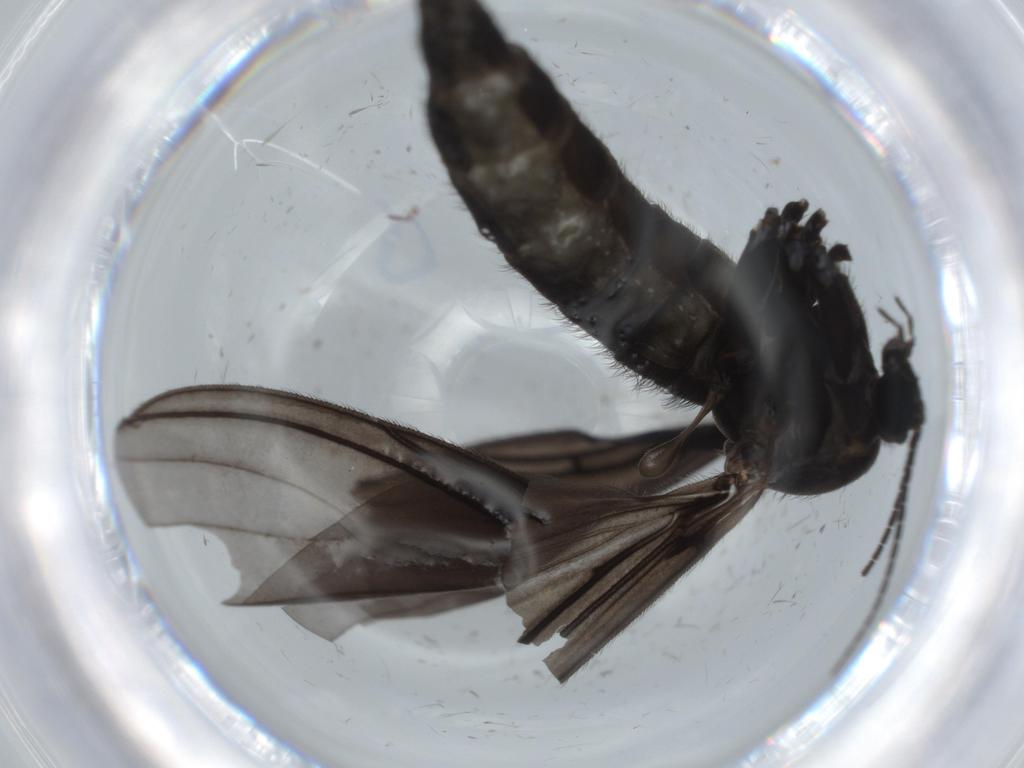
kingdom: Animalia
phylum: Arthropoda
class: Insecta
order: Diptera
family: Sciaridae
